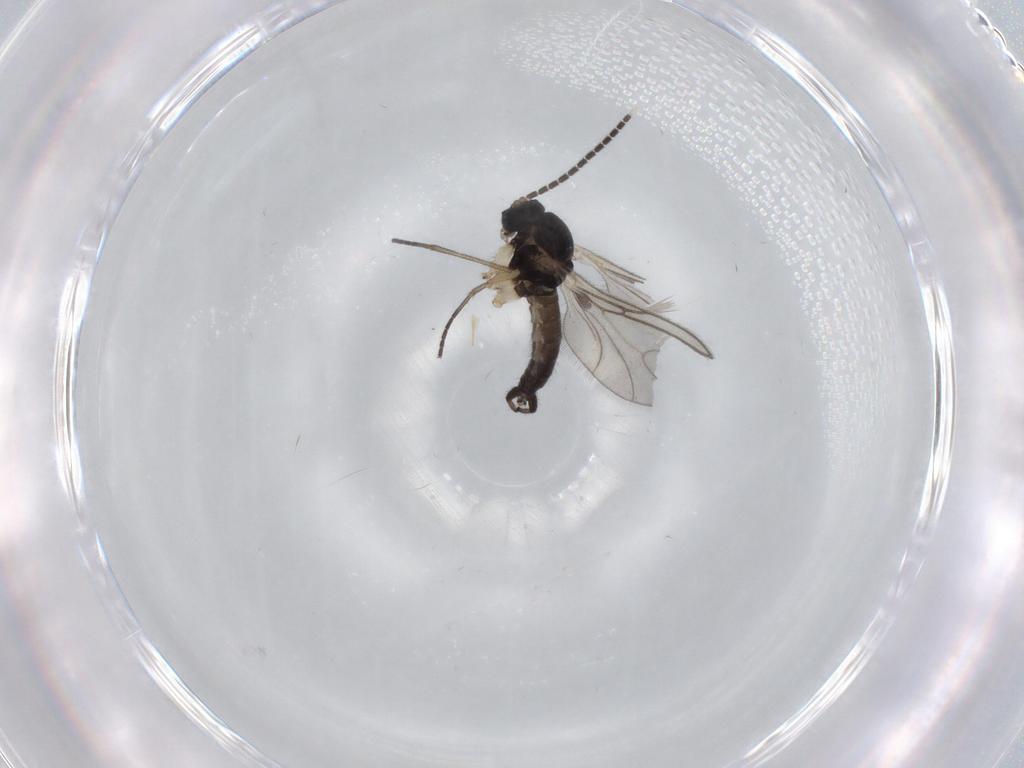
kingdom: Animalia
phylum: Arthropoda
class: Insecta
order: Diptera
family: Sciaridae
